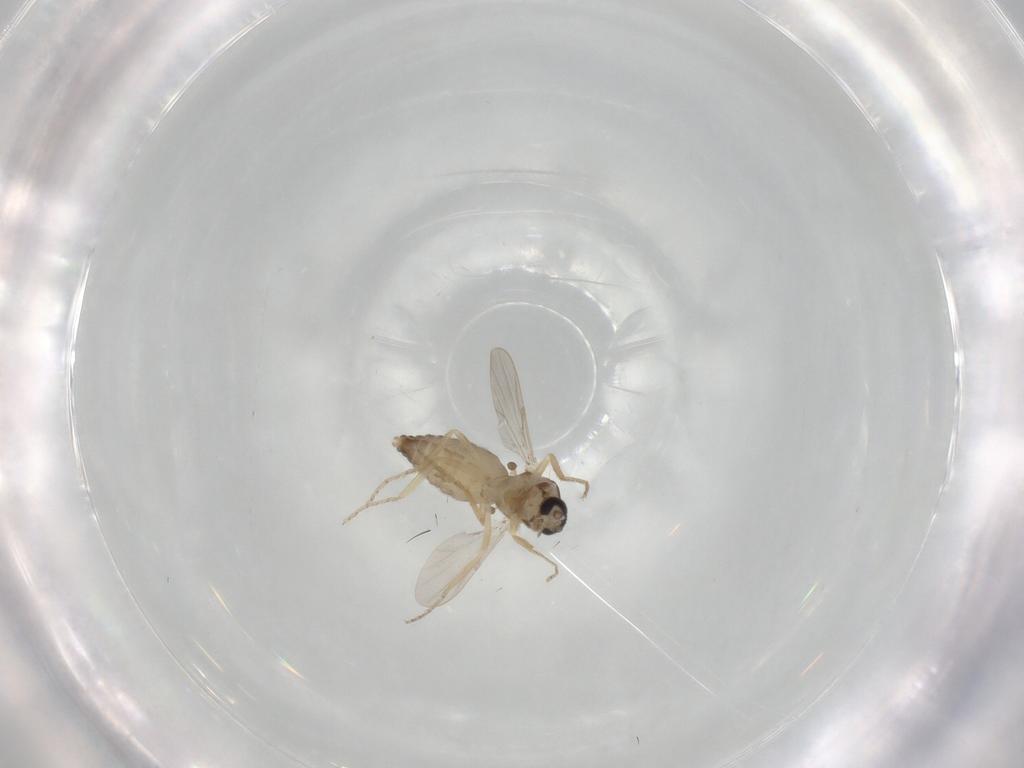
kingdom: Animalia
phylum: Arthropoda
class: Insecta
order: Diptera
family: Ceratopogonidae
